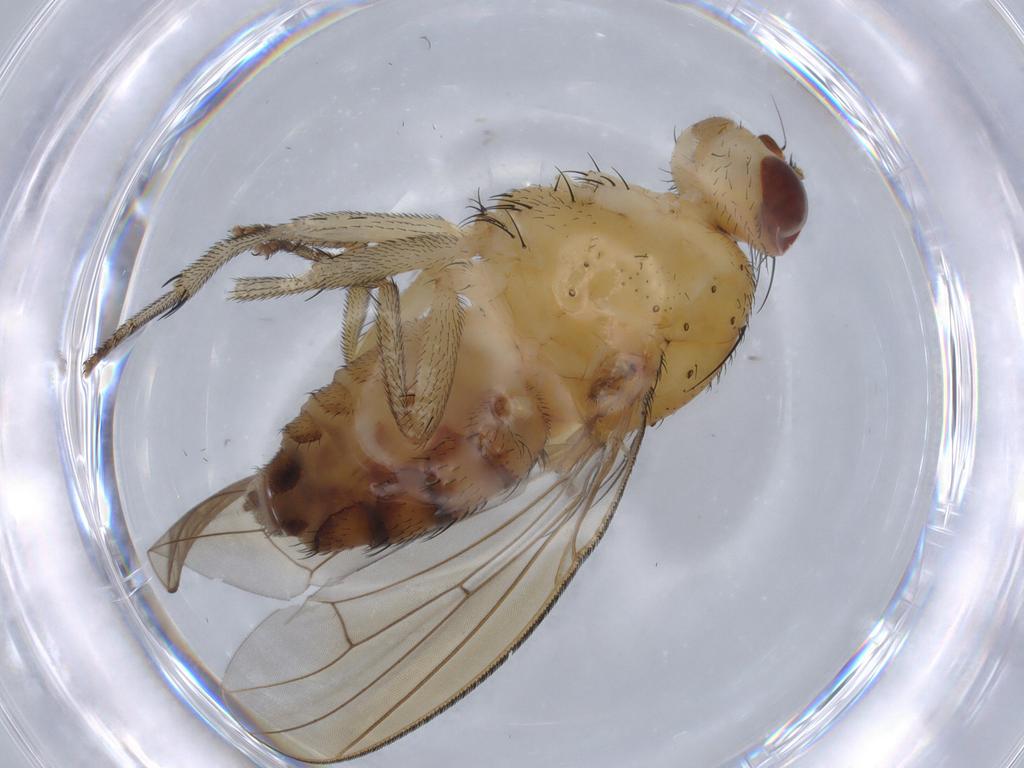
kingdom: Animalia
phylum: Arthropoda
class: Insecta
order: Diptera
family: Lauxaniidae
